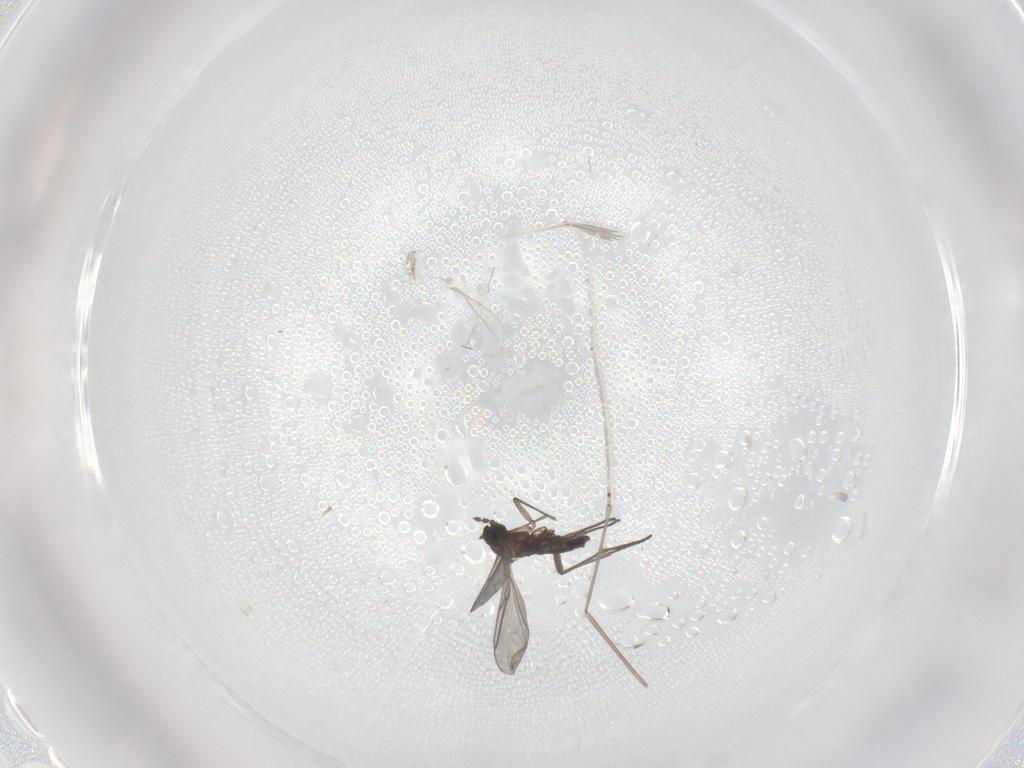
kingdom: Animalia
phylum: Arthropoda
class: Insecta
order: Diptera
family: Cecidomyiidae
